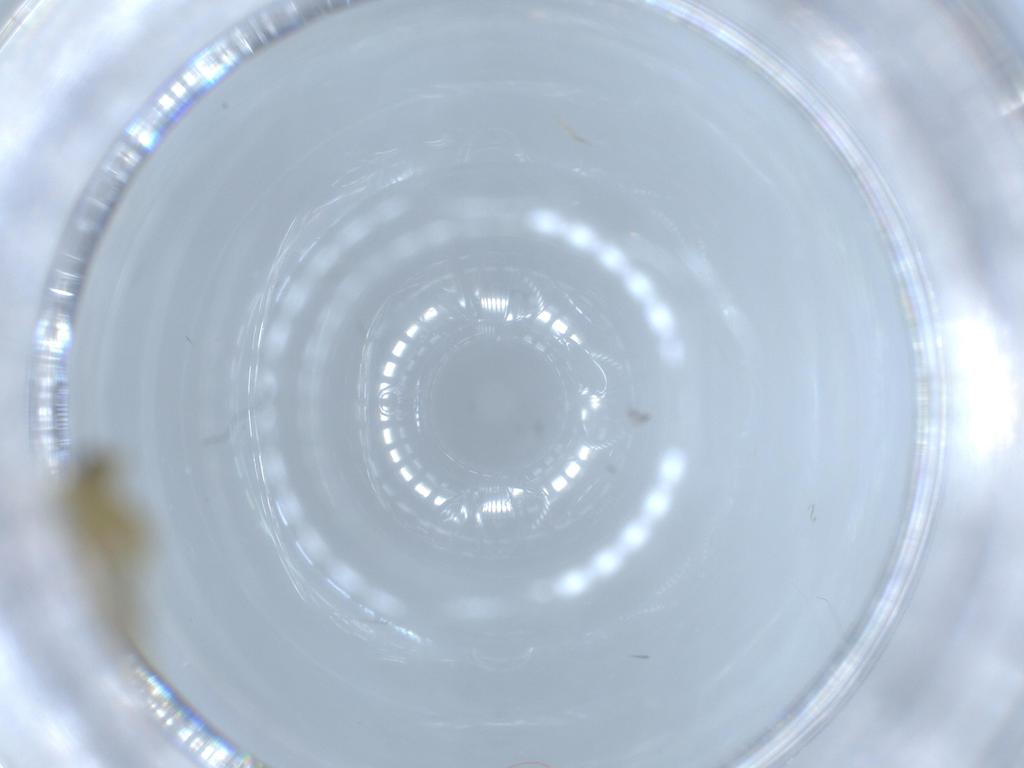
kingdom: Animalia
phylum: Arthropoda
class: Insecta
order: Diptera
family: Chironomidae
